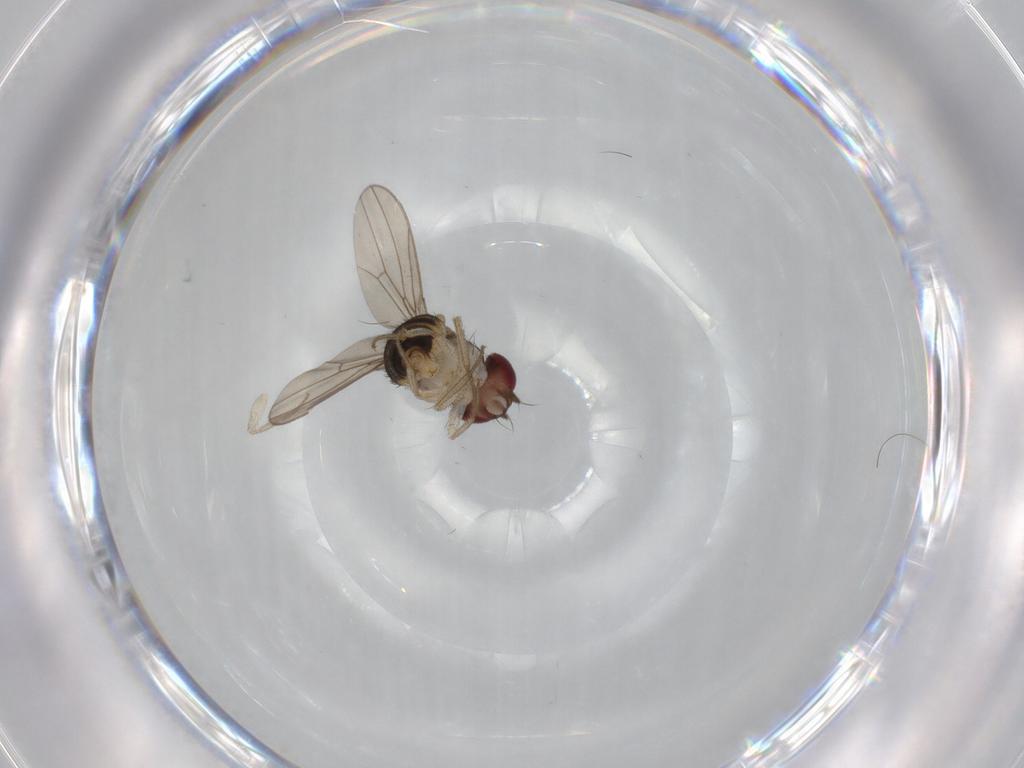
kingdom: Animalia
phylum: Arthropoda
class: Insecta
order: Diptera
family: Drosophilidae
